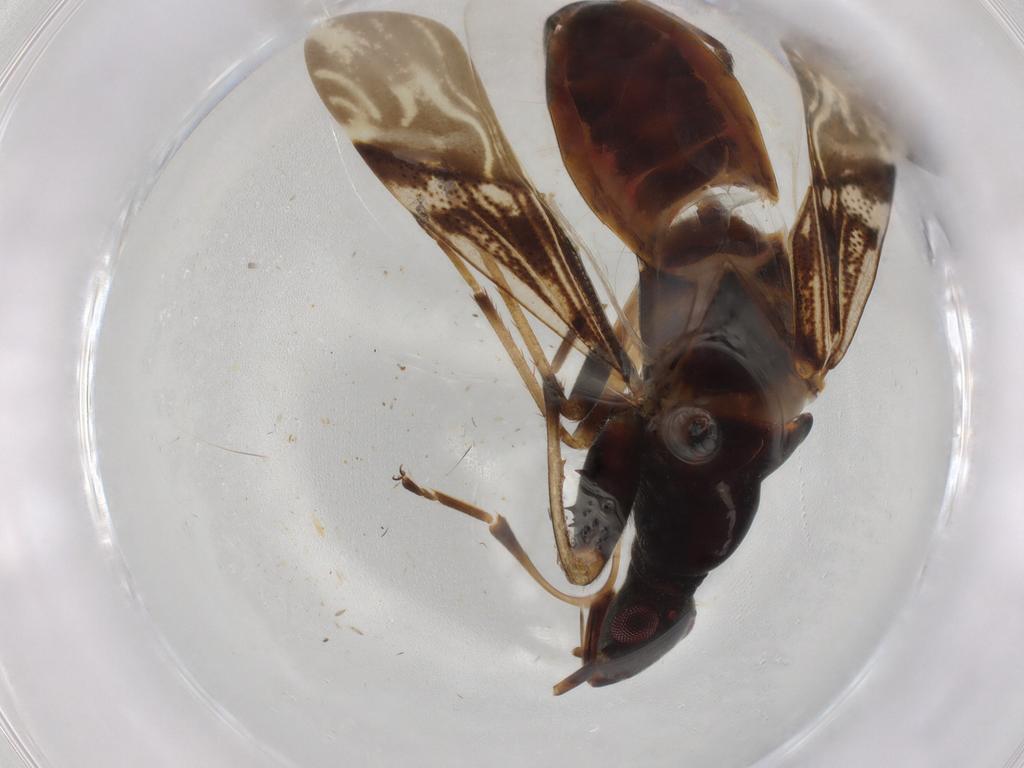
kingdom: Animalia
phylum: Arthropoda
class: Insecta
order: Hemiptera
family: Rhyparochromidae
